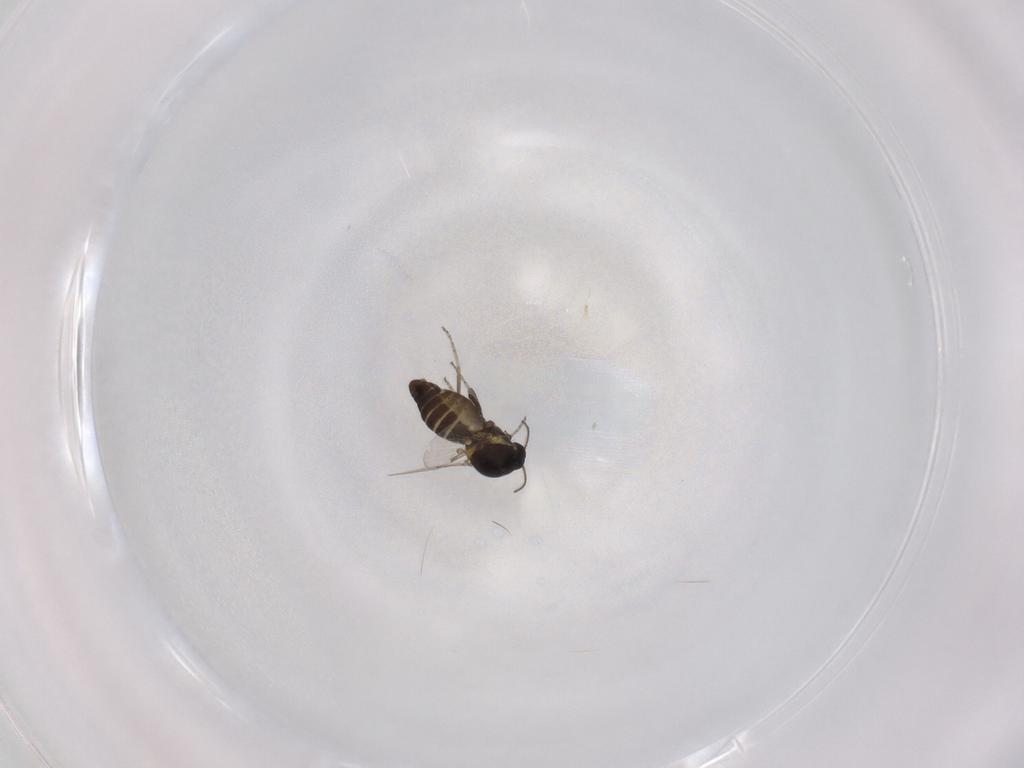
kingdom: Animalia
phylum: Arthropoda
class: Insecta
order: Diptera
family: Ceratopogonidae
